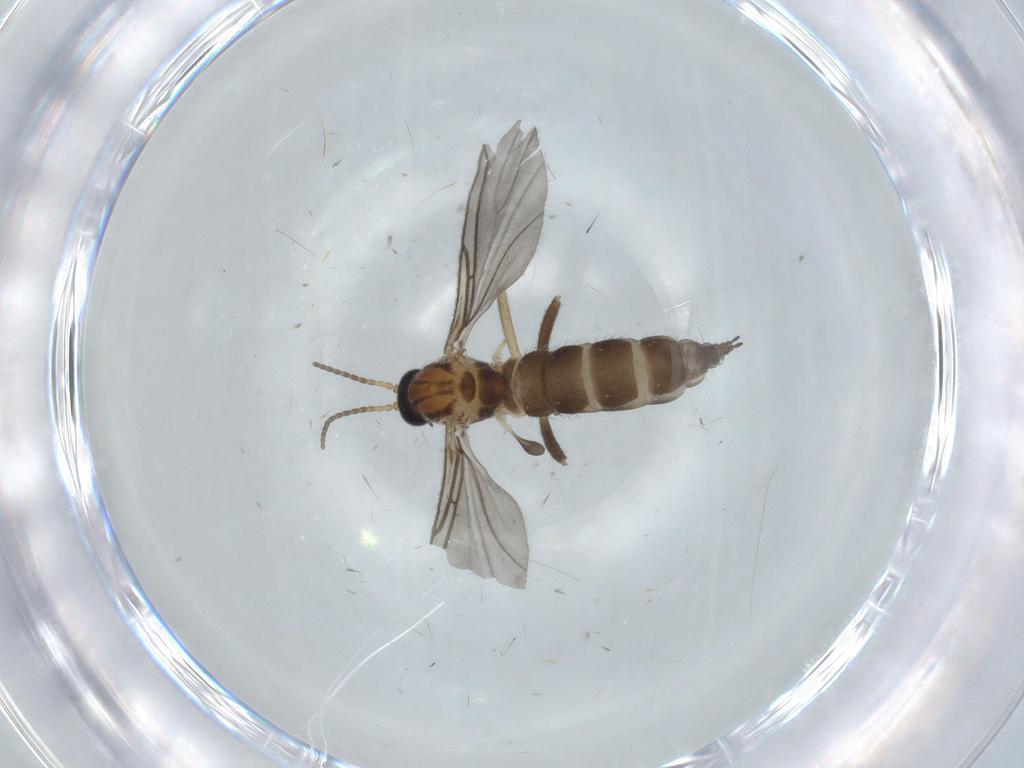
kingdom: Animalia
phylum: Arthropoda
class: Insecta
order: Diptera
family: Sciaridae
